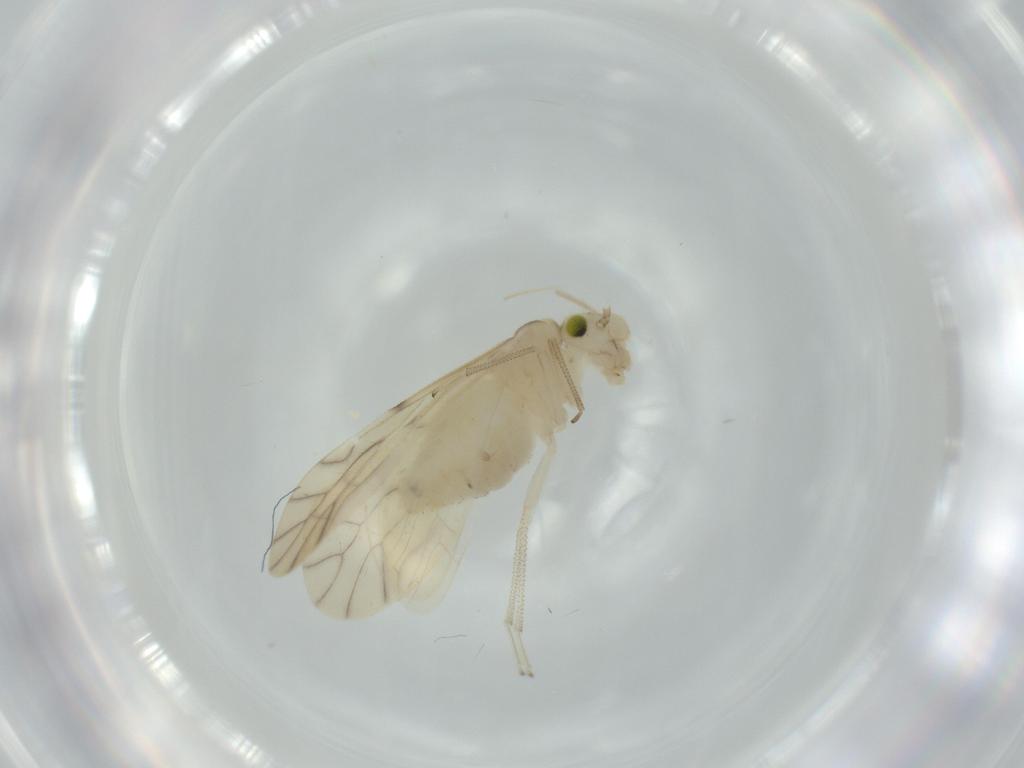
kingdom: Animalia
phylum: Arthropoda
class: Insecta
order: Psocodea
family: Caeciliusidae
